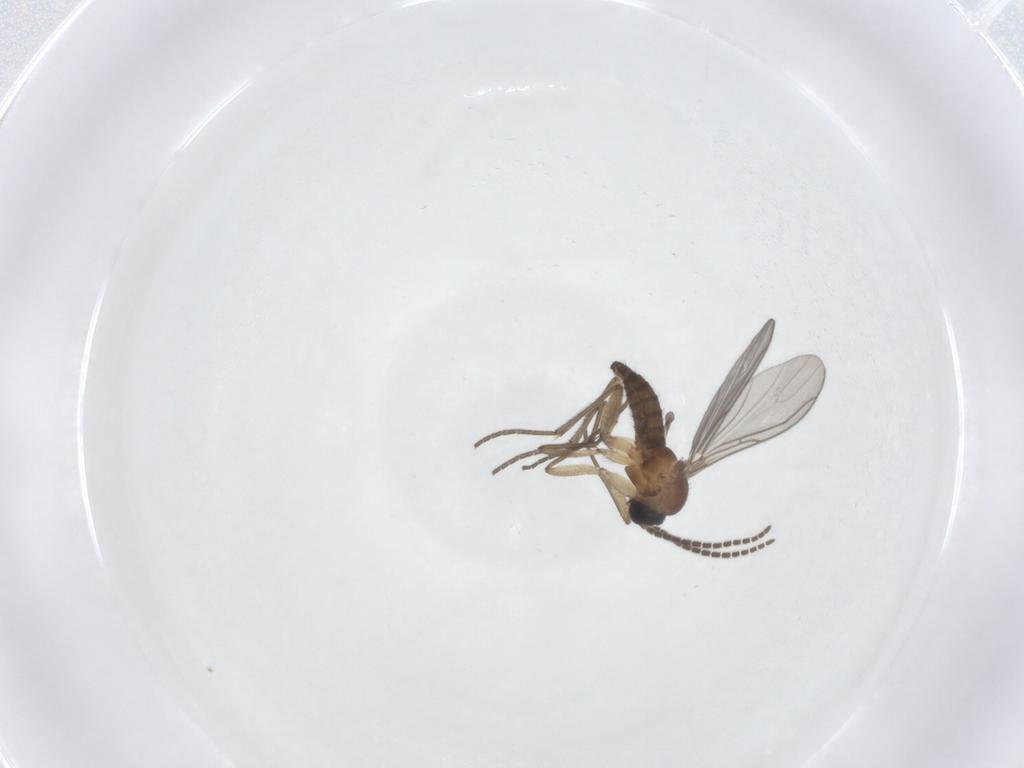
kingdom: Animalia
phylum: Arthropoda
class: Insecta
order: Diptera
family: Sciaridae
